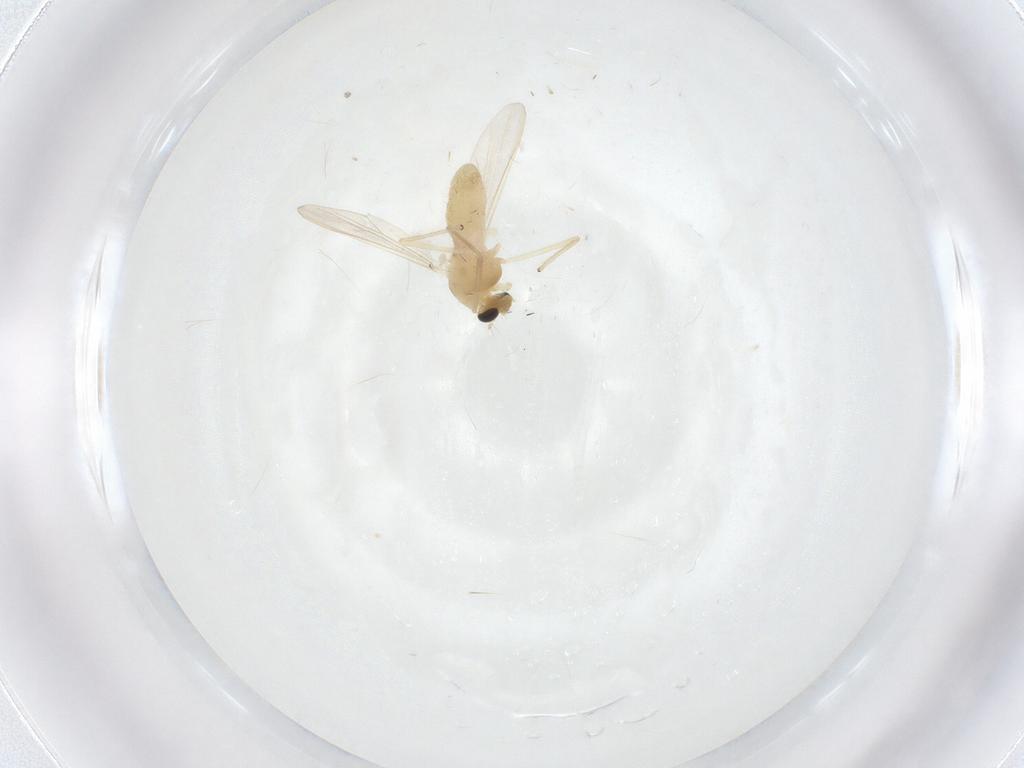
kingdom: Animalia
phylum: Arthropoda
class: Insecta
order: Diptera
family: Chironomidae
